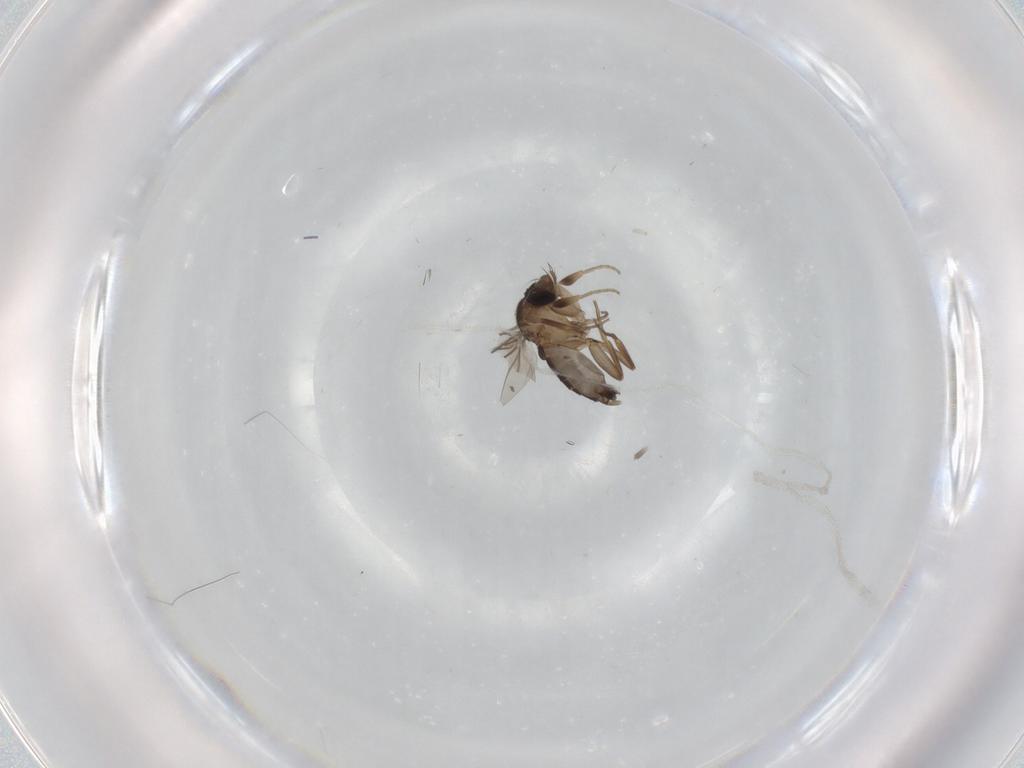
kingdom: Animalia
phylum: Arthropoda
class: Insecta
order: Diptera
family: Phoridae
